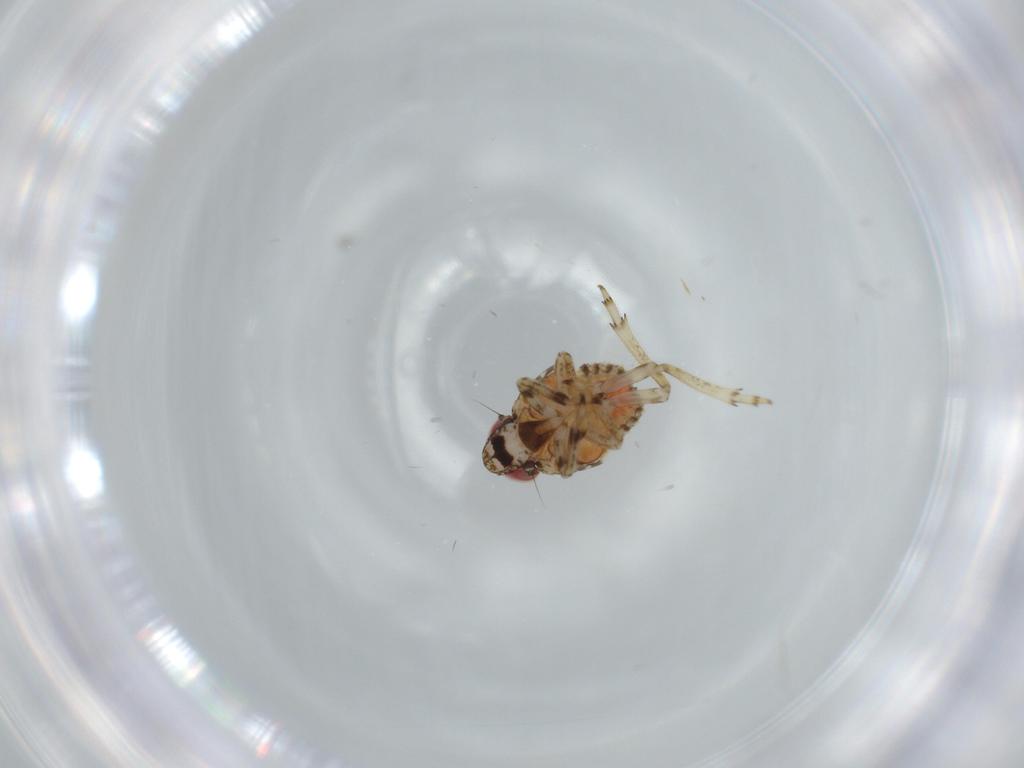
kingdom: Animalia
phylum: Arthropoda
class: Insecta
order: Hemiptera
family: Issidae
